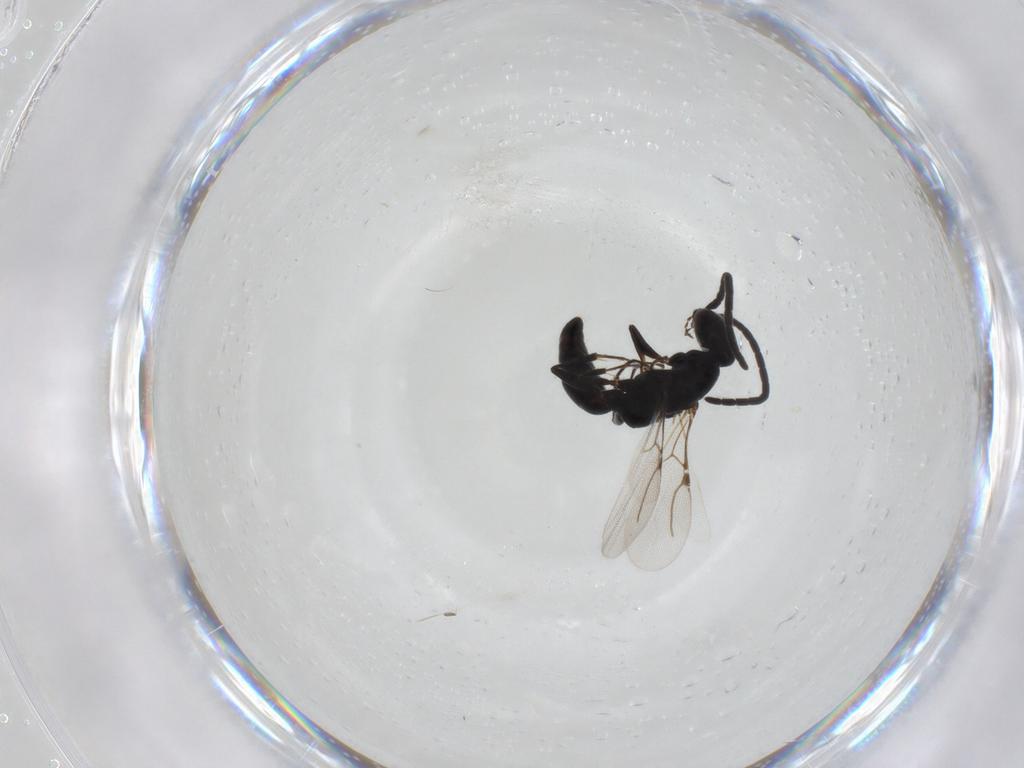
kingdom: Animalia
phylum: Arthropoda
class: Insecta
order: Hymenoptera
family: Bethylidae
